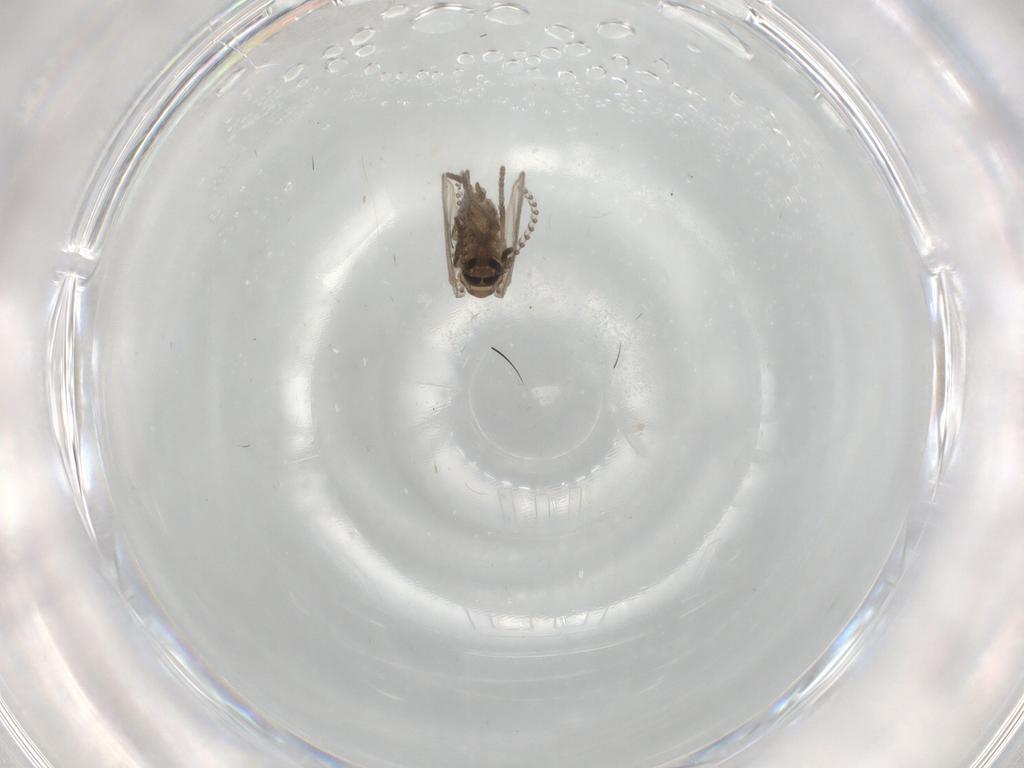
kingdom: Animalia
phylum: Arthropoda
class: Insecta
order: Diptera
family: Psychodidae
